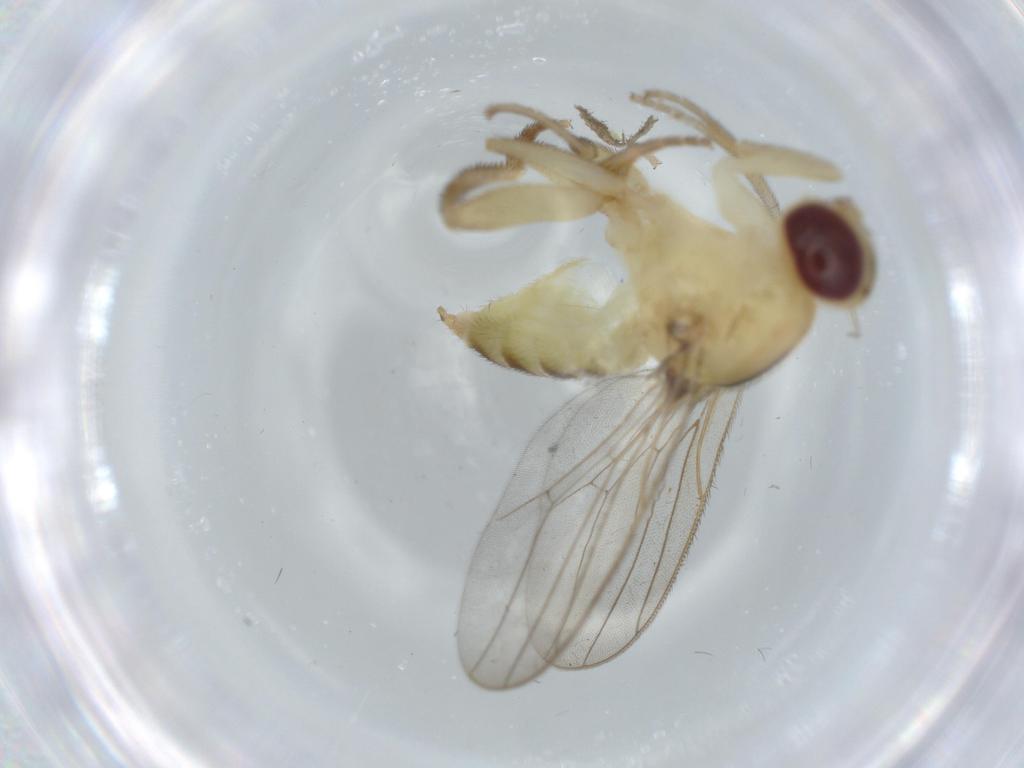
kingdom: Animalia
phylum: Arthropoda
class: Insecta
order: Diptera
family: Chloropidae
